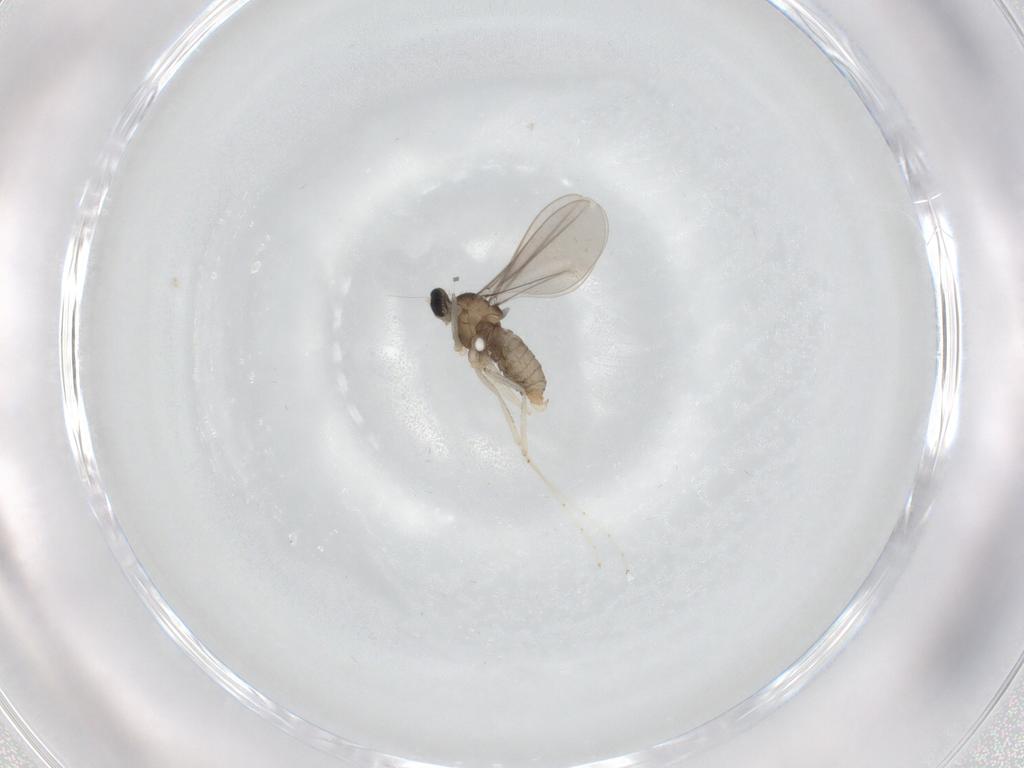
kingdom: Animalia
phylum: Arthropoda
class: Insecta
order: Diptera
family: Cecidomyiidae
